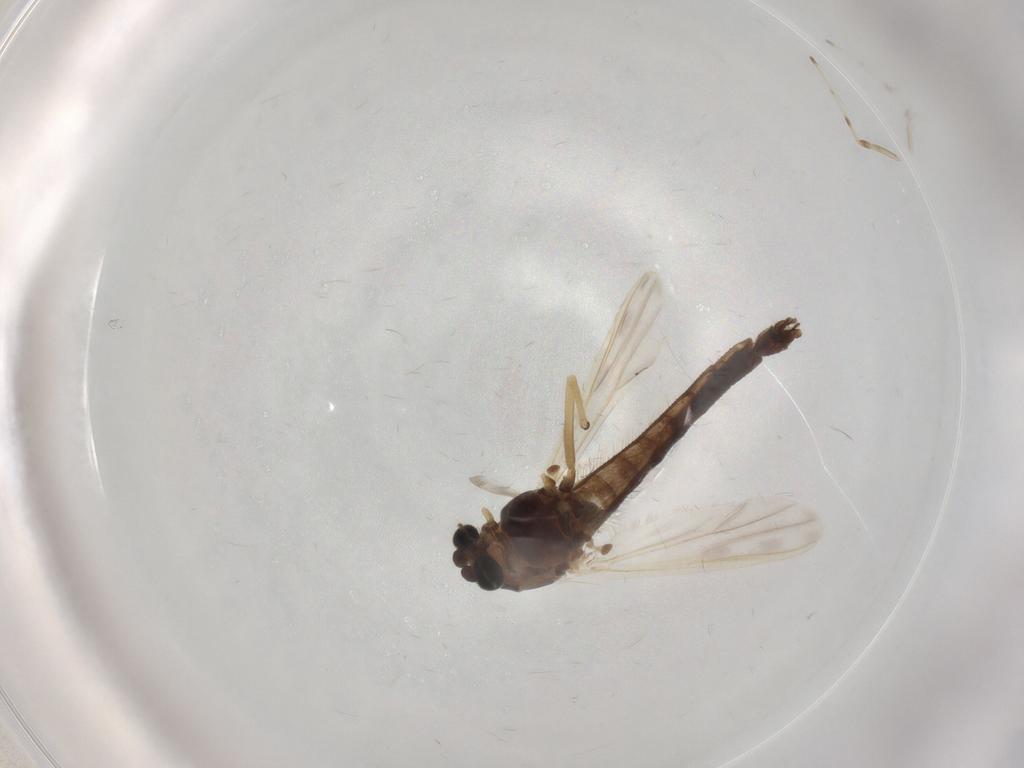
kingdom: Animalia
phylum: Arthropoda
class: Insecta
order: Diptera
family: Chironomidae
